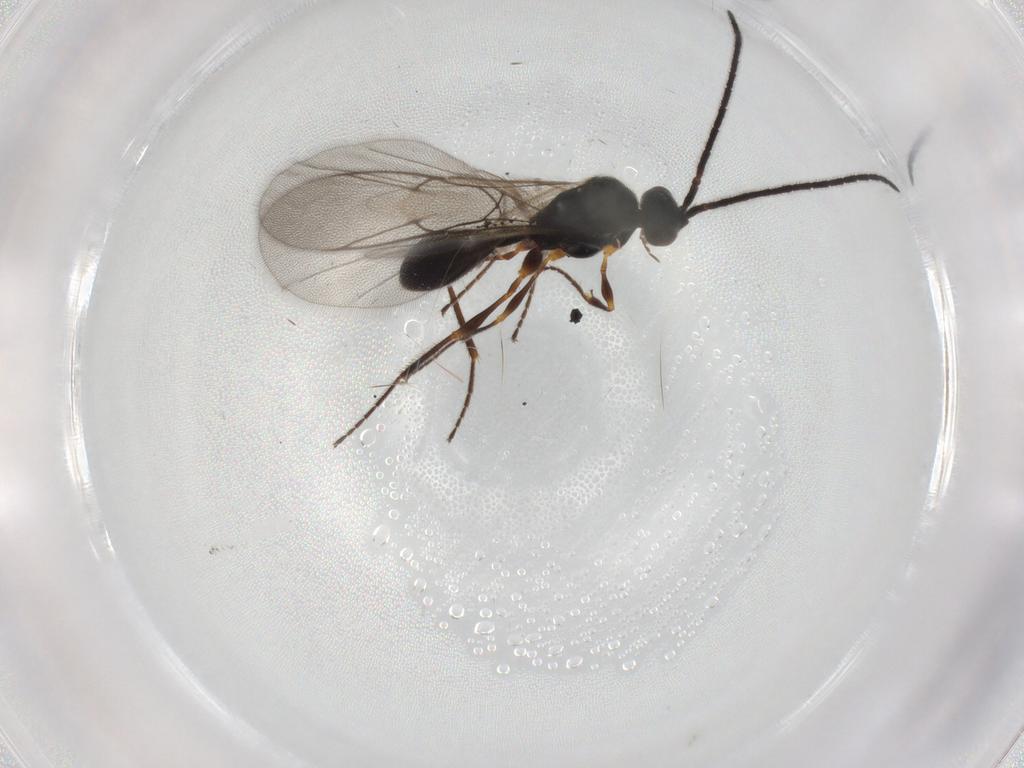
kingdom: Animalia
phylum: Arthropoda
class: Insecta
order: Hymenoptera
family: Diapriidae
